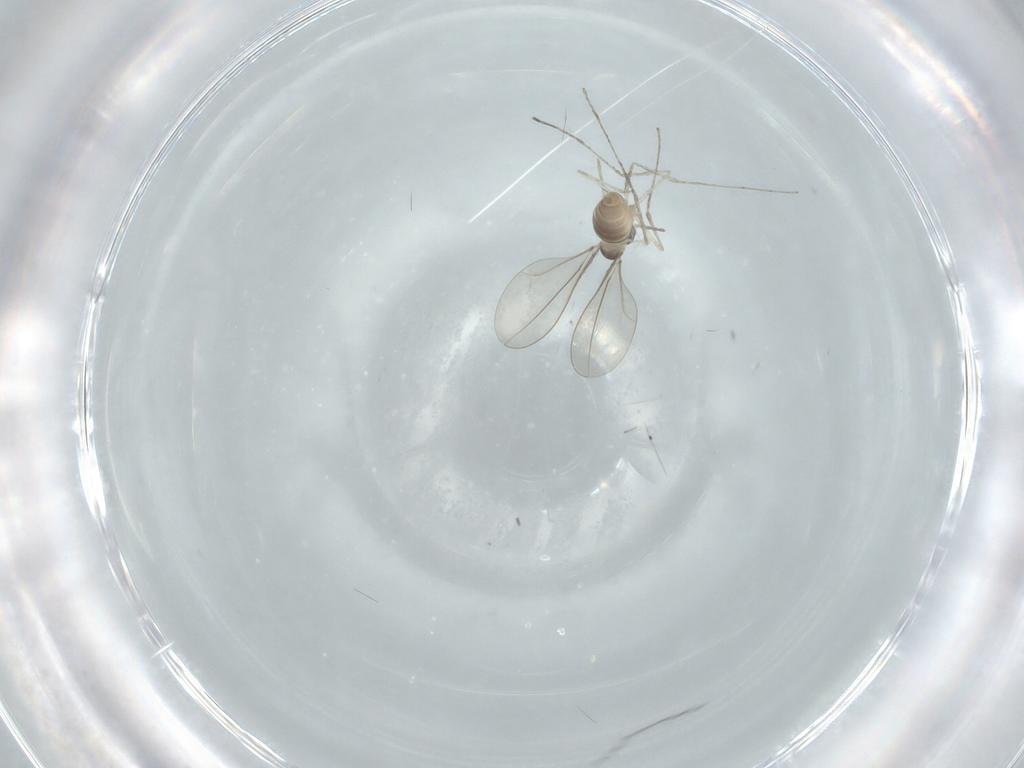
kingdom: Animalia
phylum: Arthropoda
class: Insecta
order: Diptera
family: Cecidomyiidae
